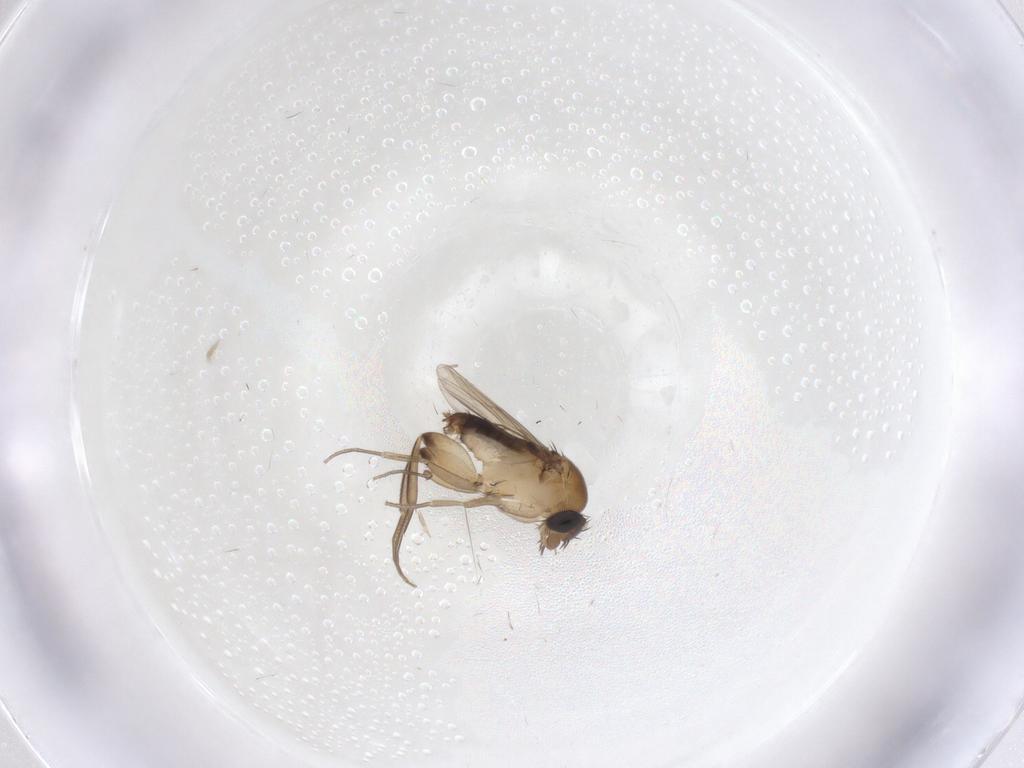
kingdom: Animalia
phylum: Arthropoda
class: Insecta
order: Diptera
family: Phoridae
